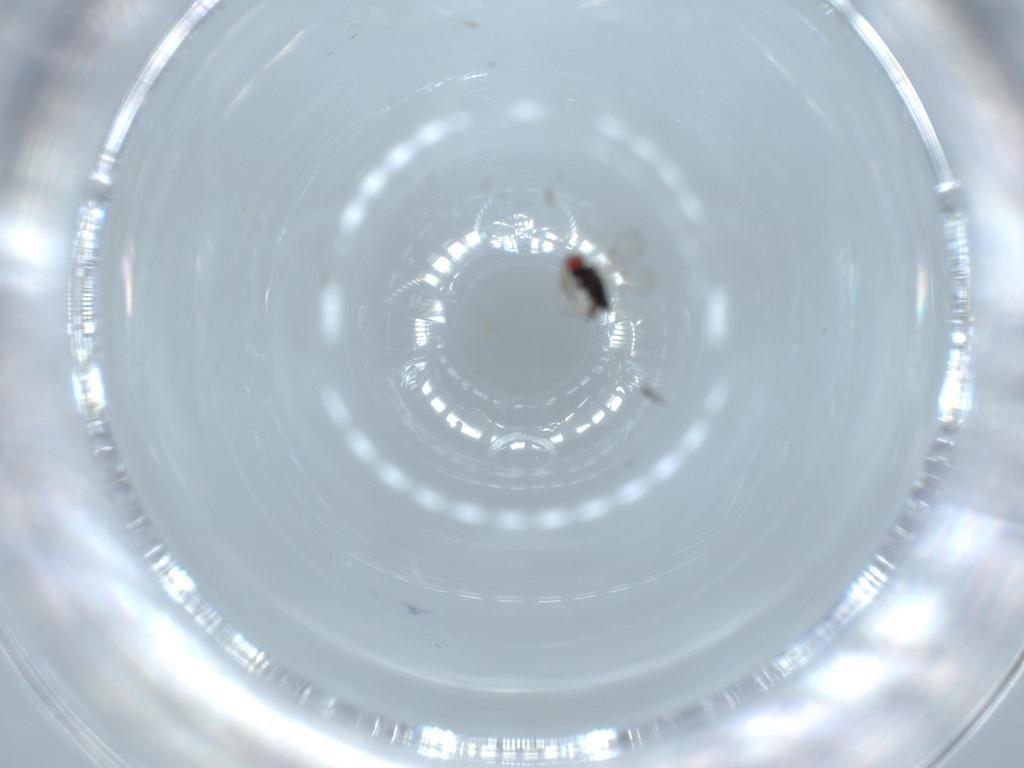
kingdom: Animalia
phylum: Arthropoda
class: Insecta
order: Hymenoptera
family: Azotidae
